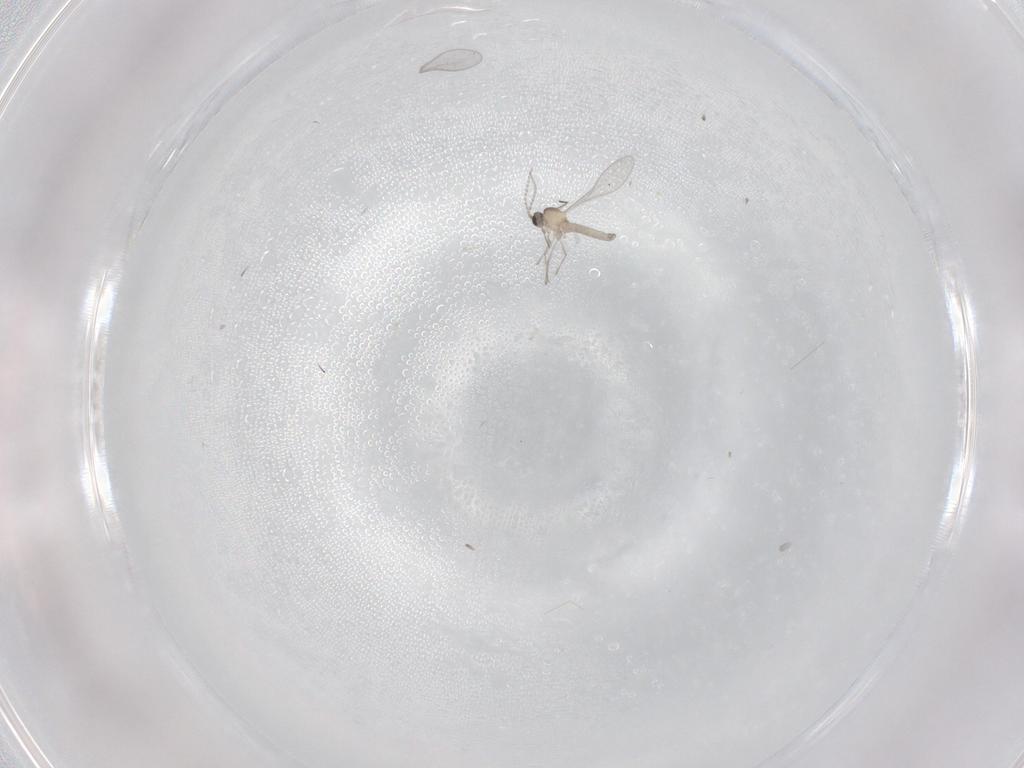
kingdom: Animalia
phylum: Arthropoda
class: Insecta
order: Diptera
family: Cecidomyiidae
